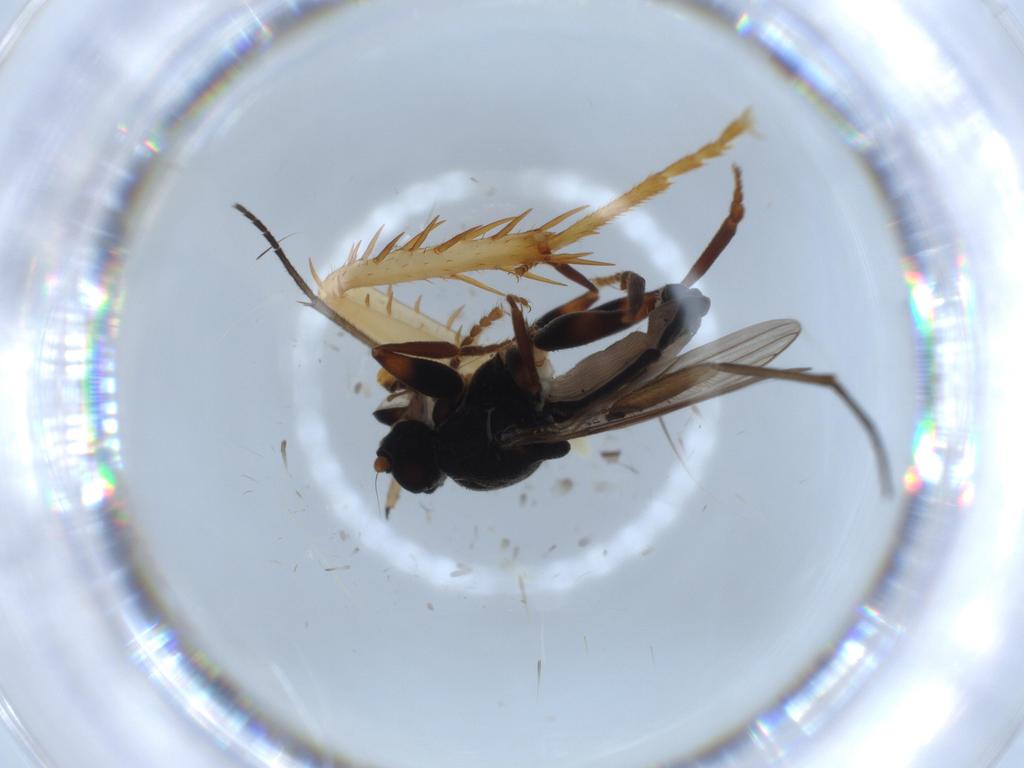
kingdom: Animalia
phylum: Arthropoda
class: Insecta
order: Diptera
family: Sphaeroceridae
